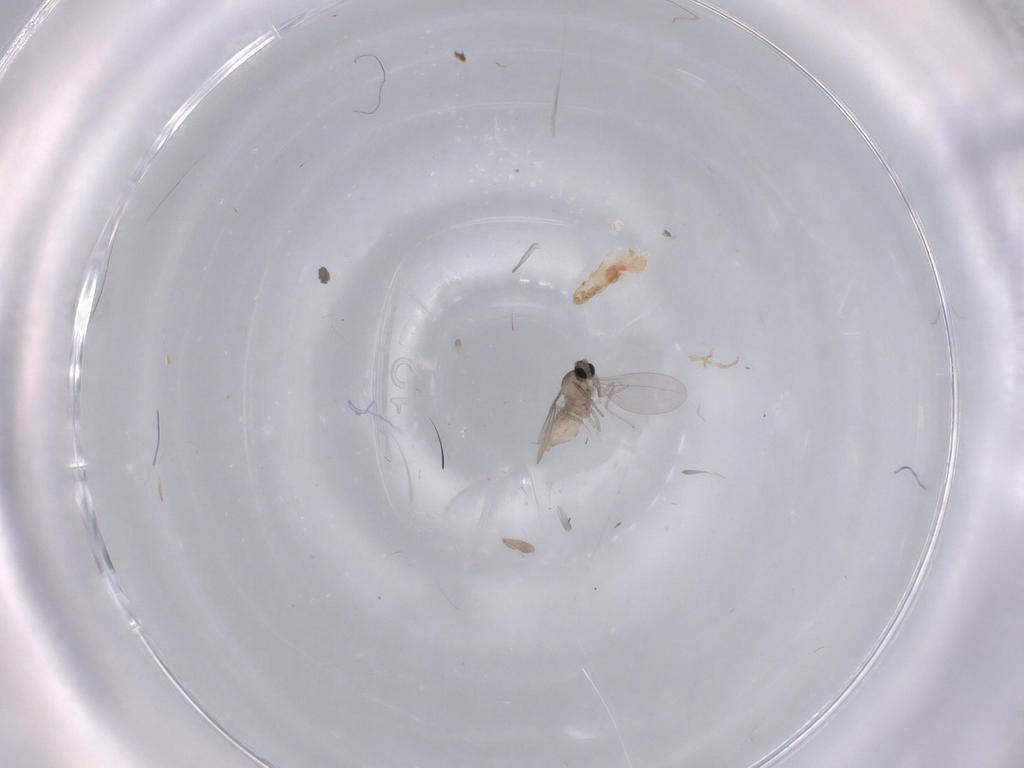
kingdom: Animalia
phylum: Arthropoda
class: Insecta
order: Diptera
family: Cecidomyiidae
